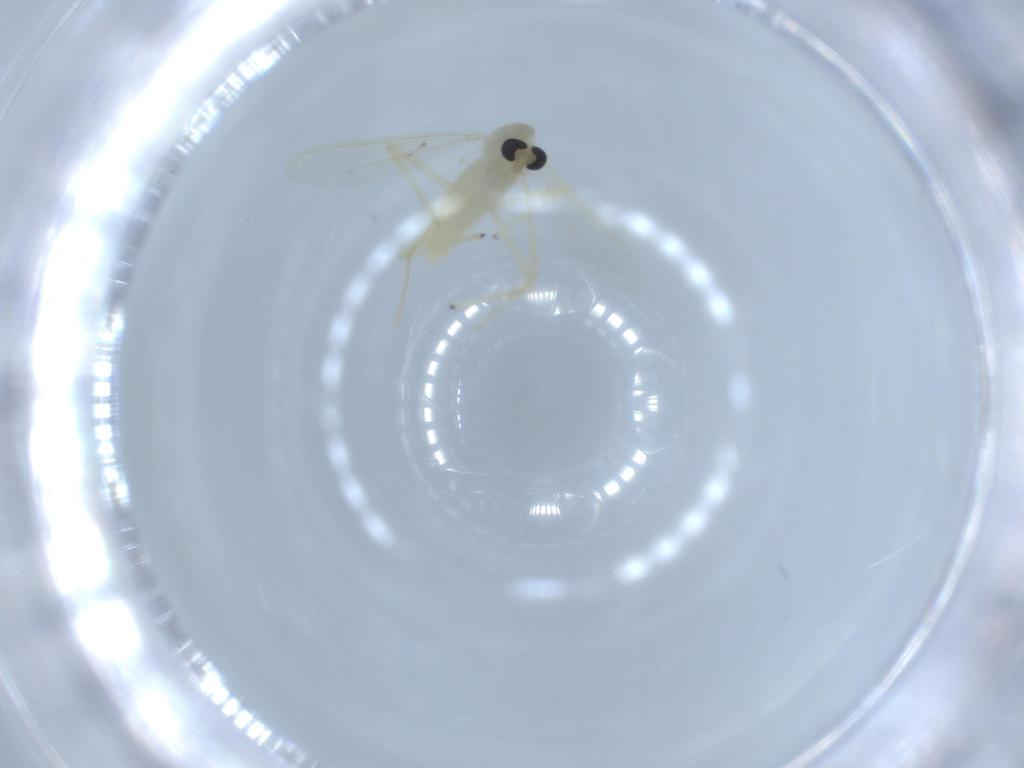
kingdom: Animalia
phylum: Arthropoda
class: Insecta
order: Diptera
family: Chironomidae
